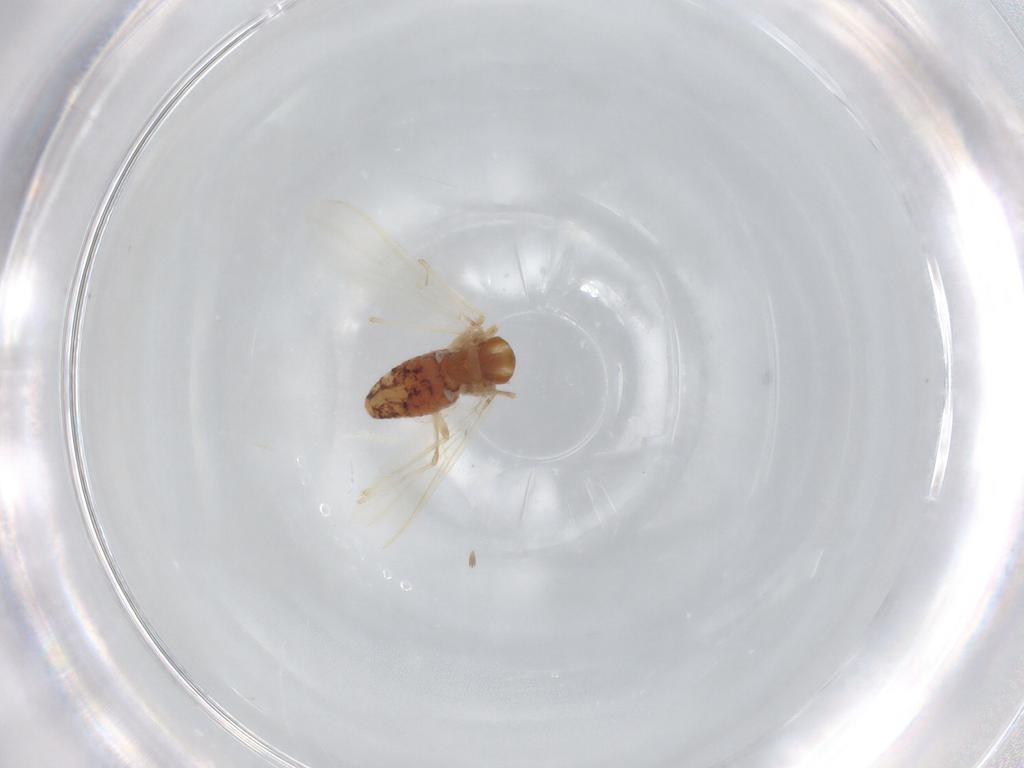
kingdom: Animalia
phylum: Arthropoda
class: Insecta
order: Diptera
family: Chironomidae
